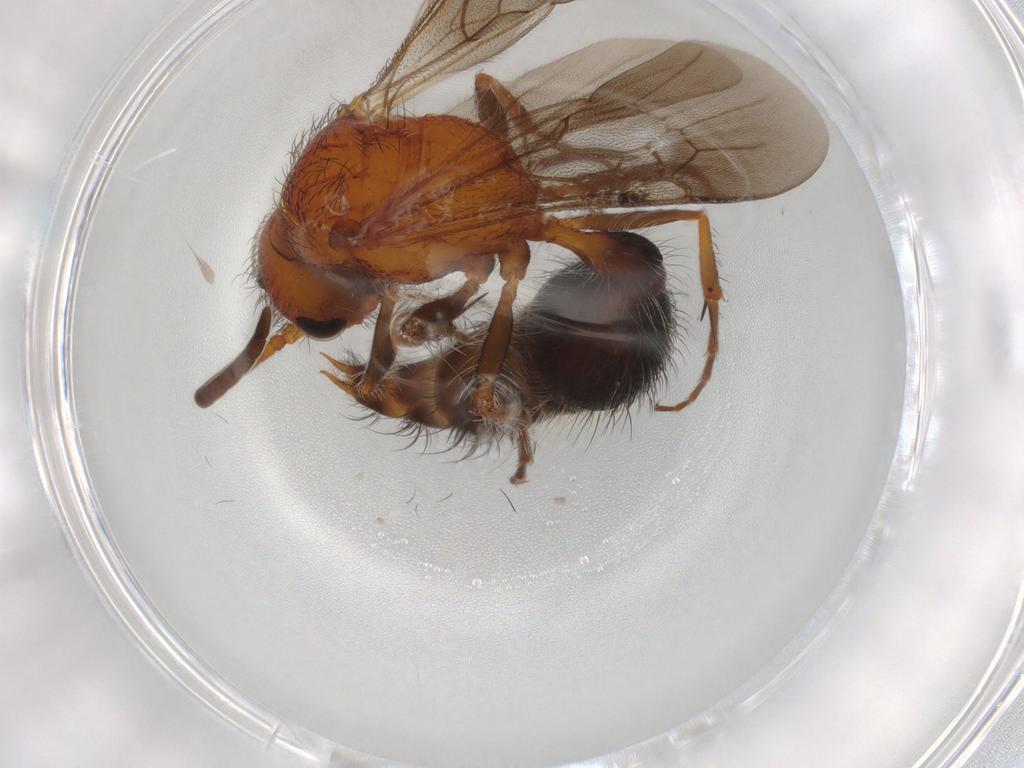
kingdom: Animalia
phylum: Arthropoda
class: Insecta
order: Hymenoptera
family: Mutillidae
